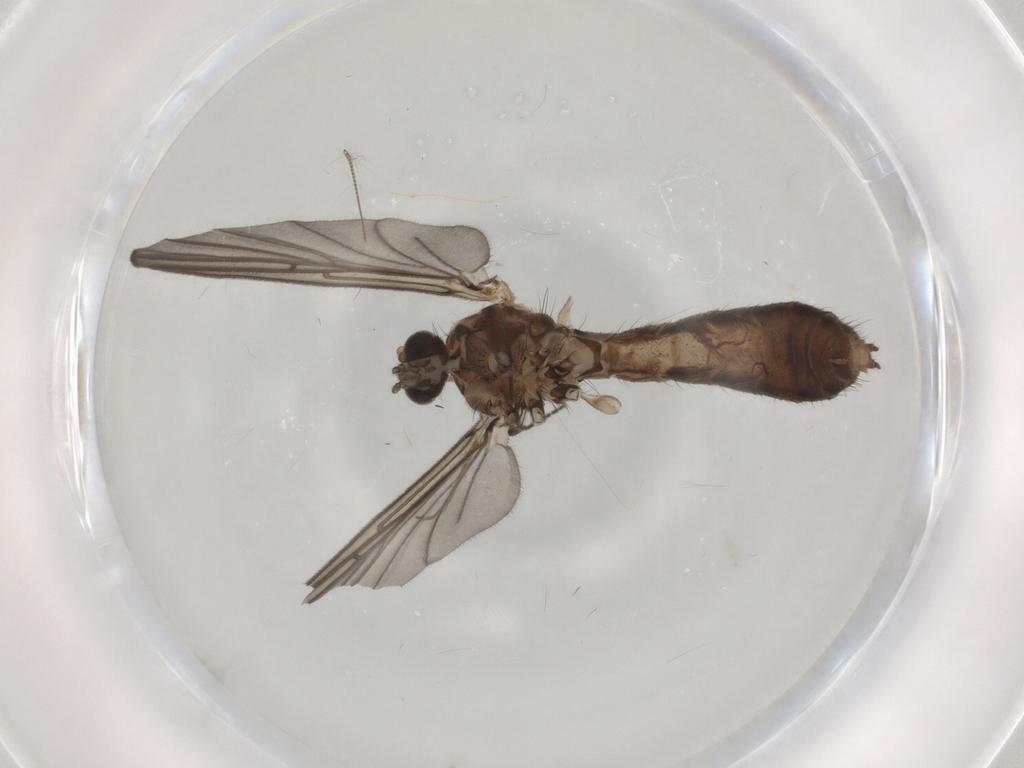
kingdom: Animalia
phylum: Arthropoda
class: Insecta
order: Diptera
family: Mycetophilidae
